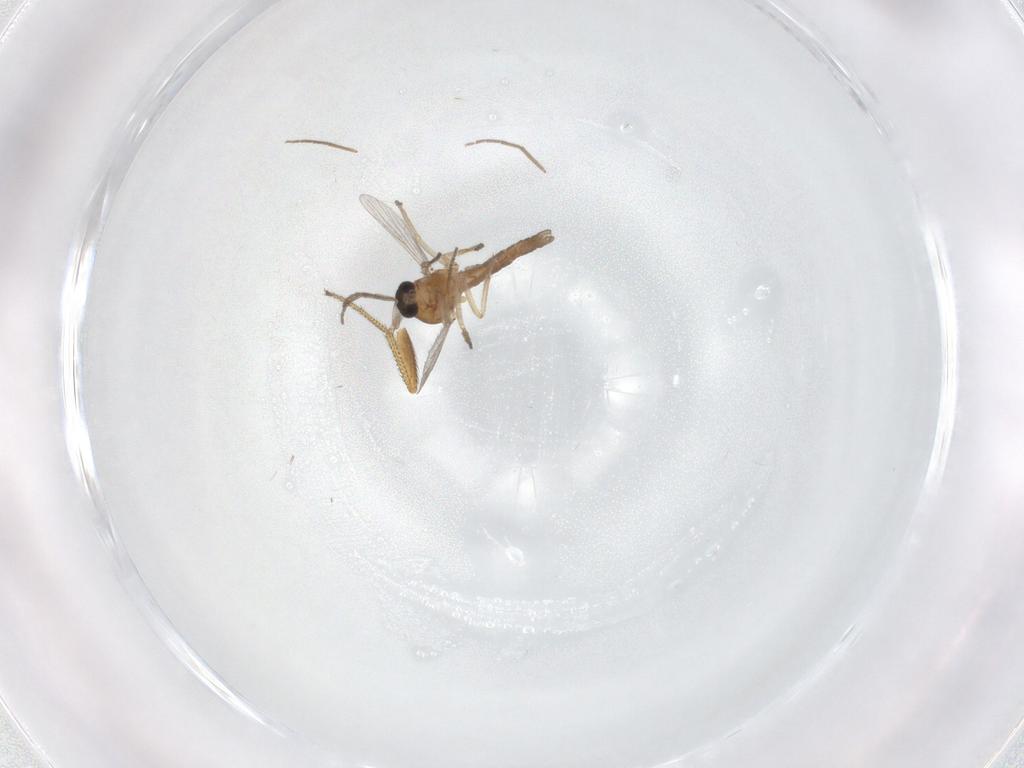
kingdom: Animalia
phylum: Arthropoda
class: Insecta
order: Diptera
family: Ceratopogonidae
